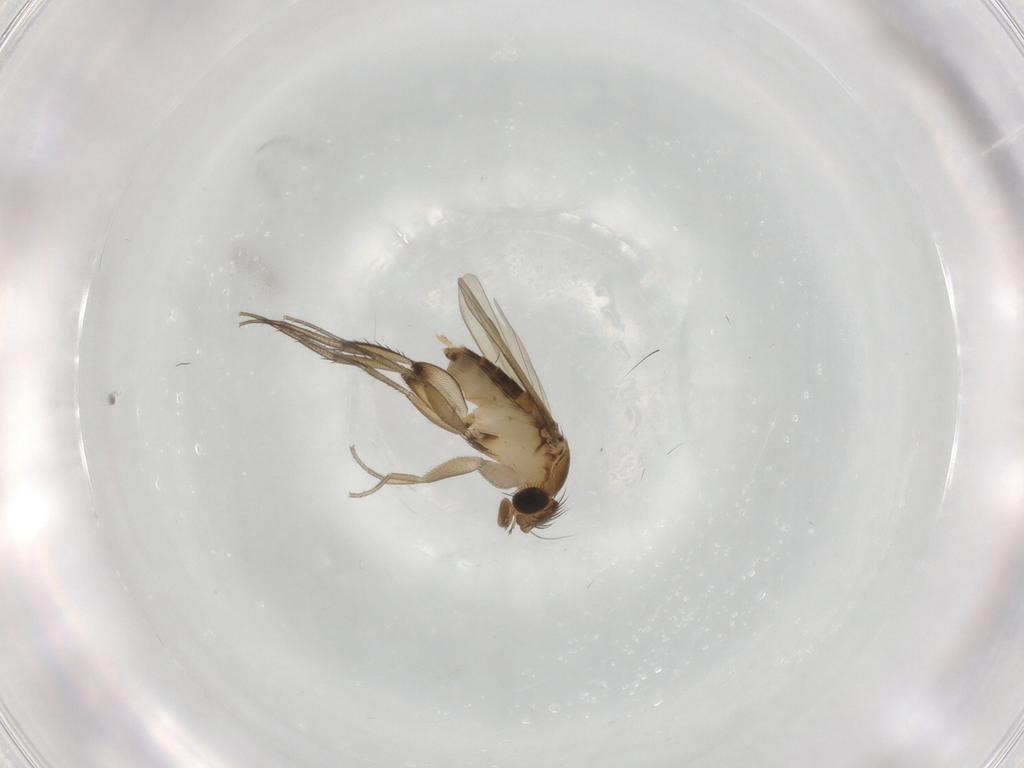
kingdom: Animalia
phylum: Arthropoda
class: Insecta
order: Diptera
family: Phoridae
